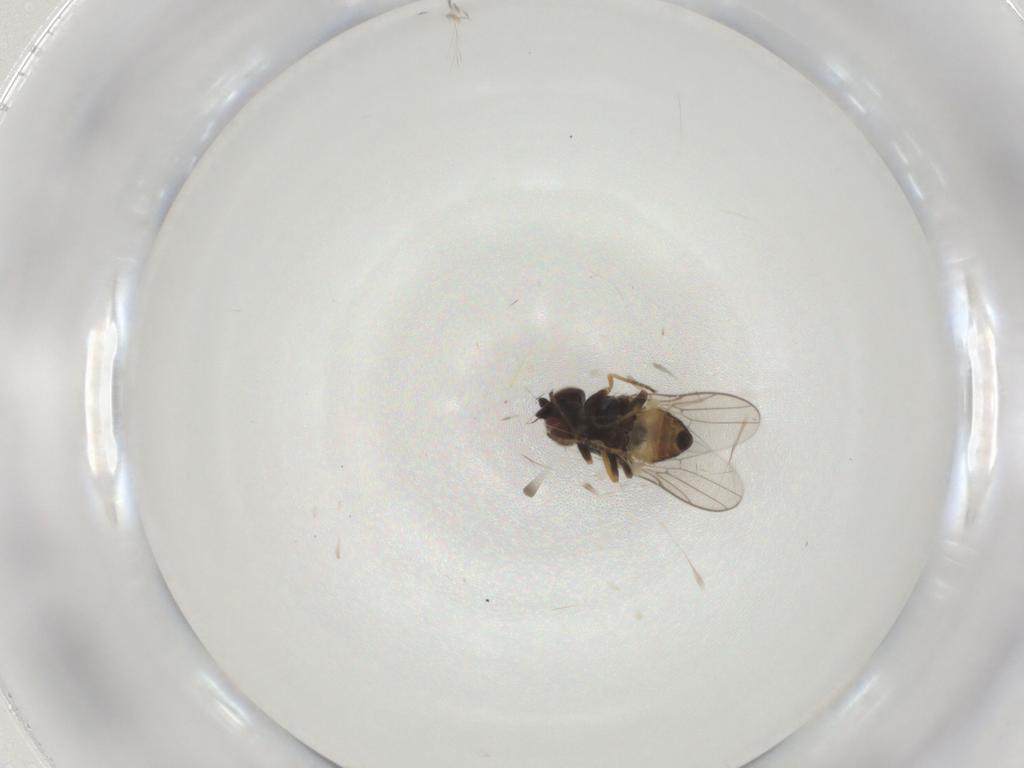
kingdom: Animalia
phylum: Arthropoda
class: Insecta
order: Diptera
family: Chloropidae
